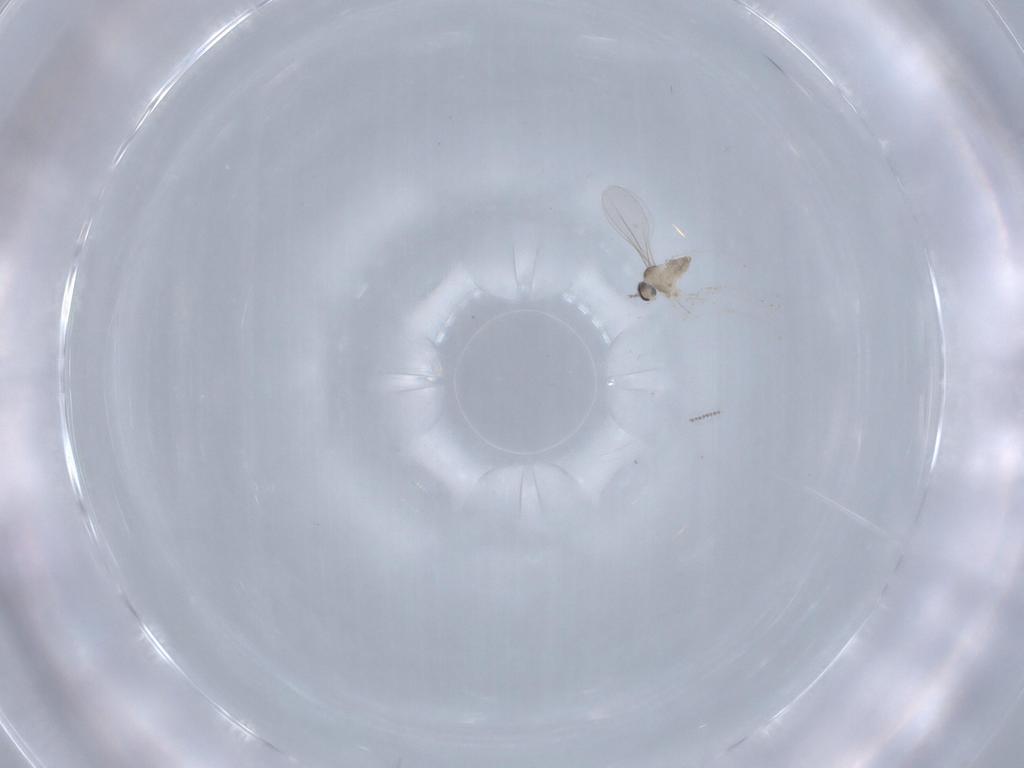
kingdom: Animalia
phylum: Arthropoda
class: Insecta
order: Diptera
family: Cecidomyiidae
